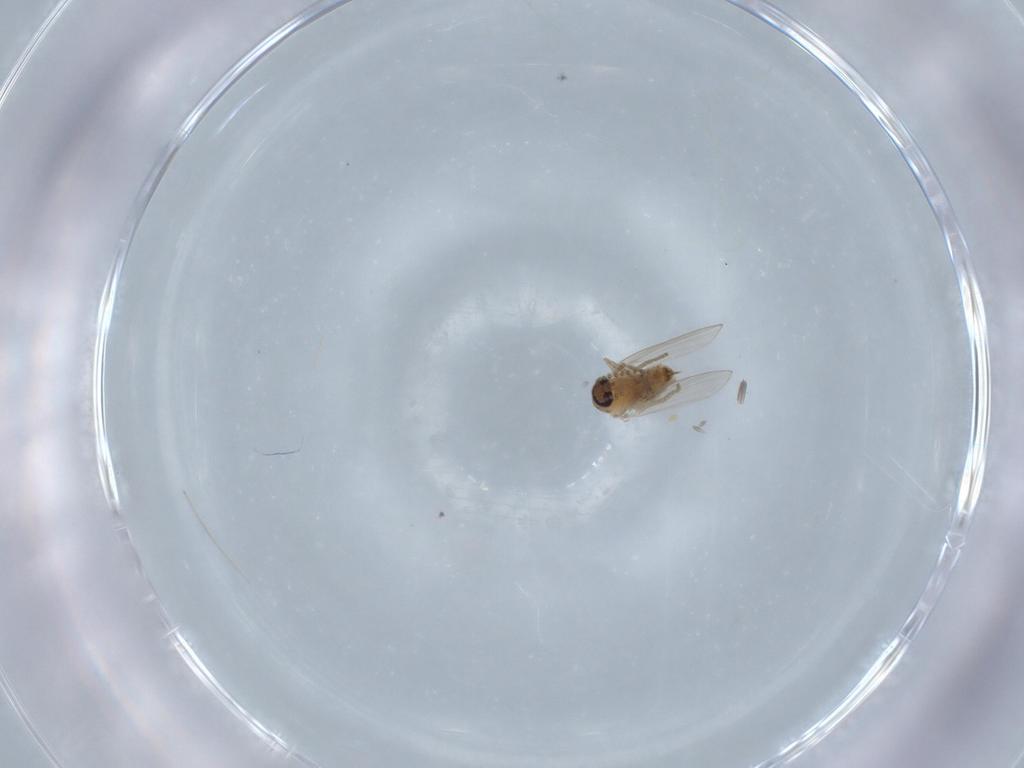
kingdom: Animalia
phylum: Arthropoda
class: Insecta
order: Diptera
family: Psychodidae
